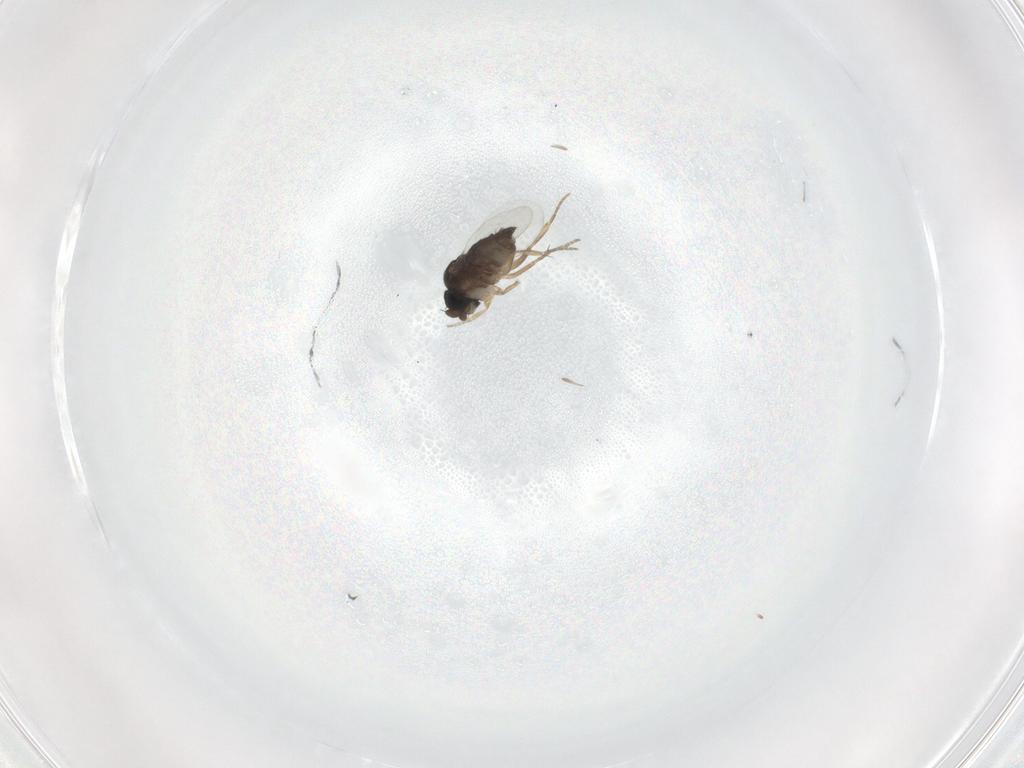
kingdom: Animalia
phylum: Arthropoda
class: Insecta
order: Diptera
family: Phoridae
